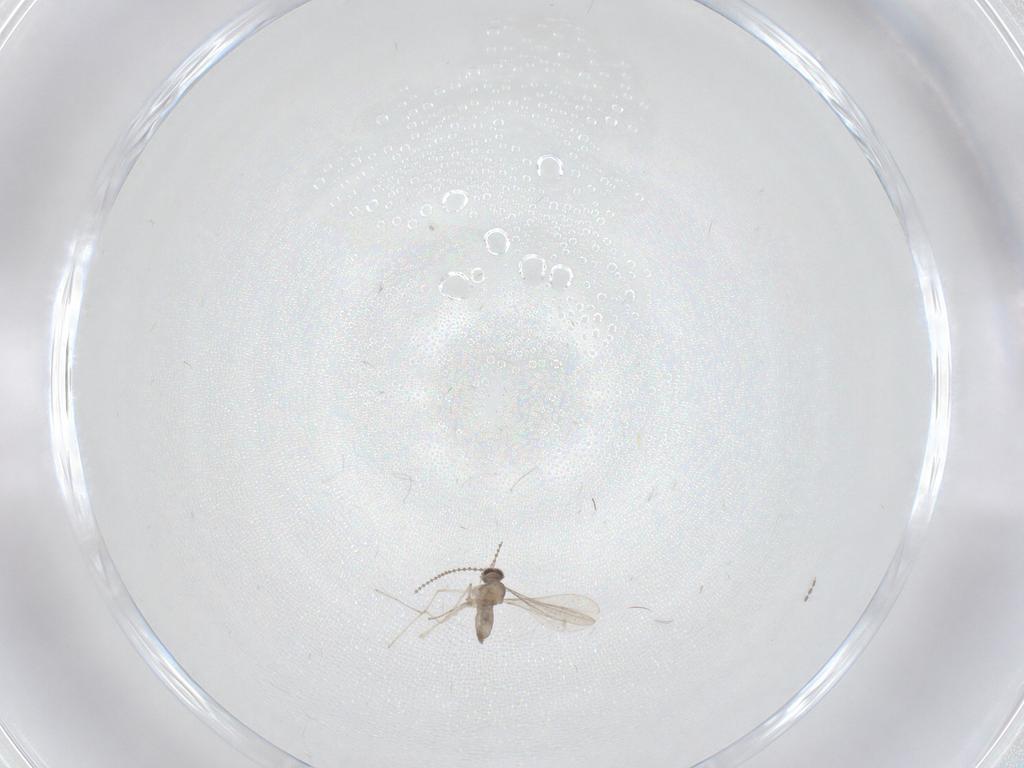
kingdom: Animalia
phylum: Arthropoda
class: Insecta
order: Diptera
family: Cecidomyiidae
